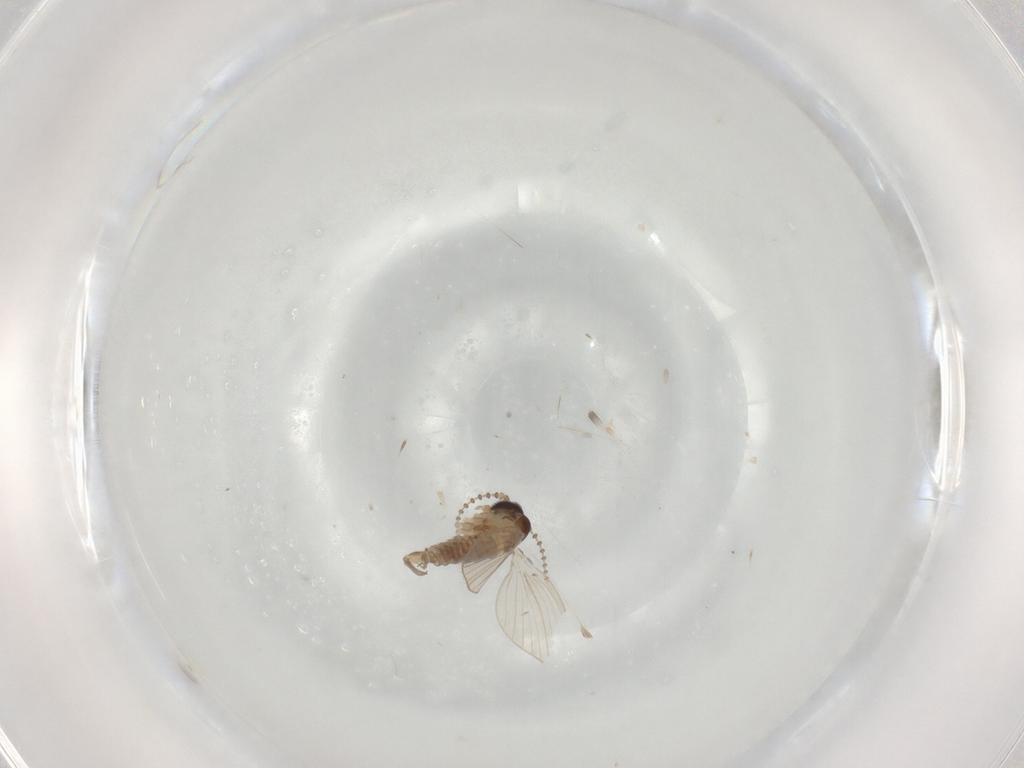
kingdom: Animalia
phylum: Arthropoda
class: Insecta
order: Diptera
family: Psychodidae
